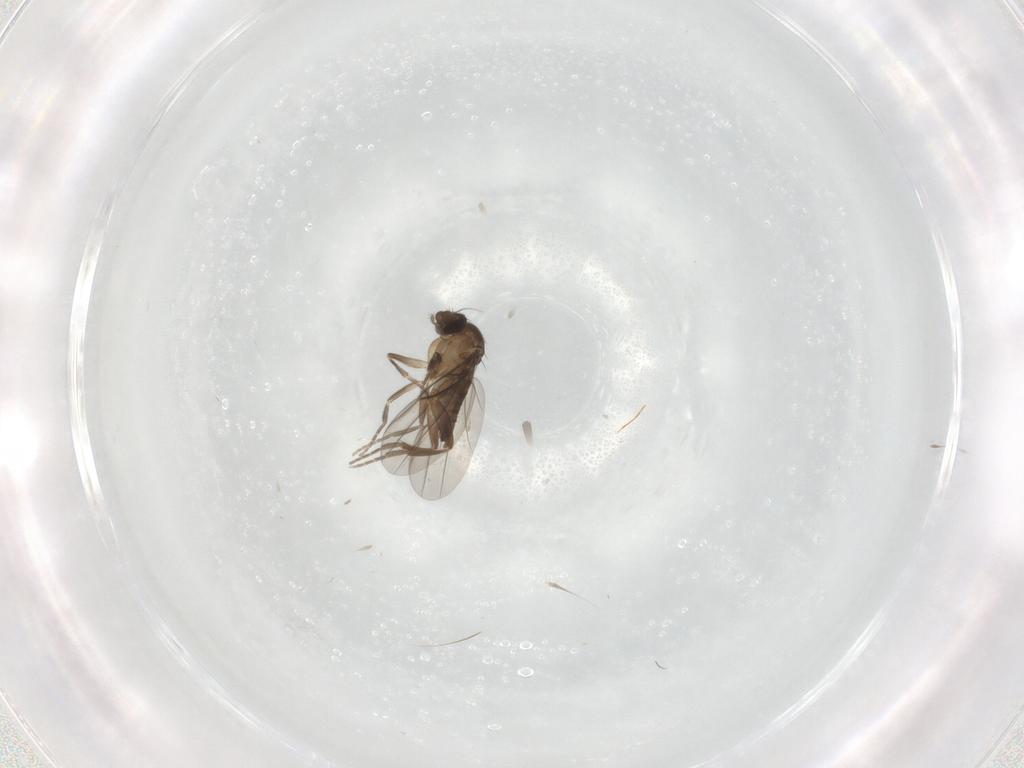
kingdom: Animalia
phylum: Arthropoda
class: Insecta
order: Diptera
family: Phoridae
